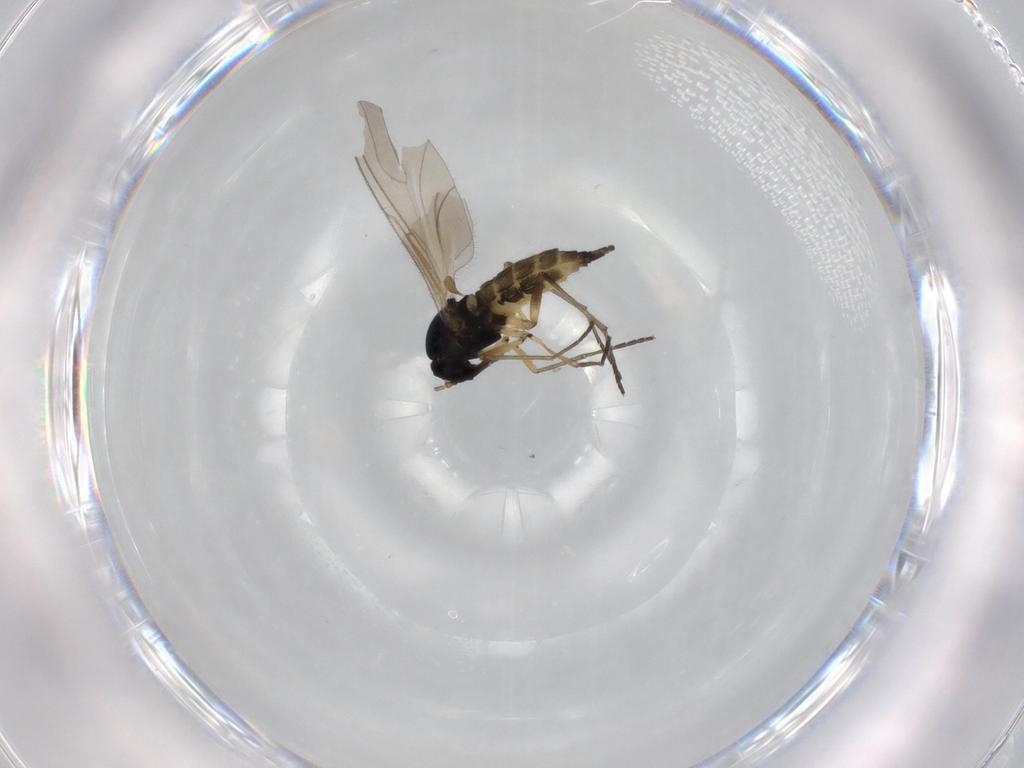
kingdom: Animalia
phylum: Arthropoda
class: Insecta
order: Diptera
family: Sciaridae
